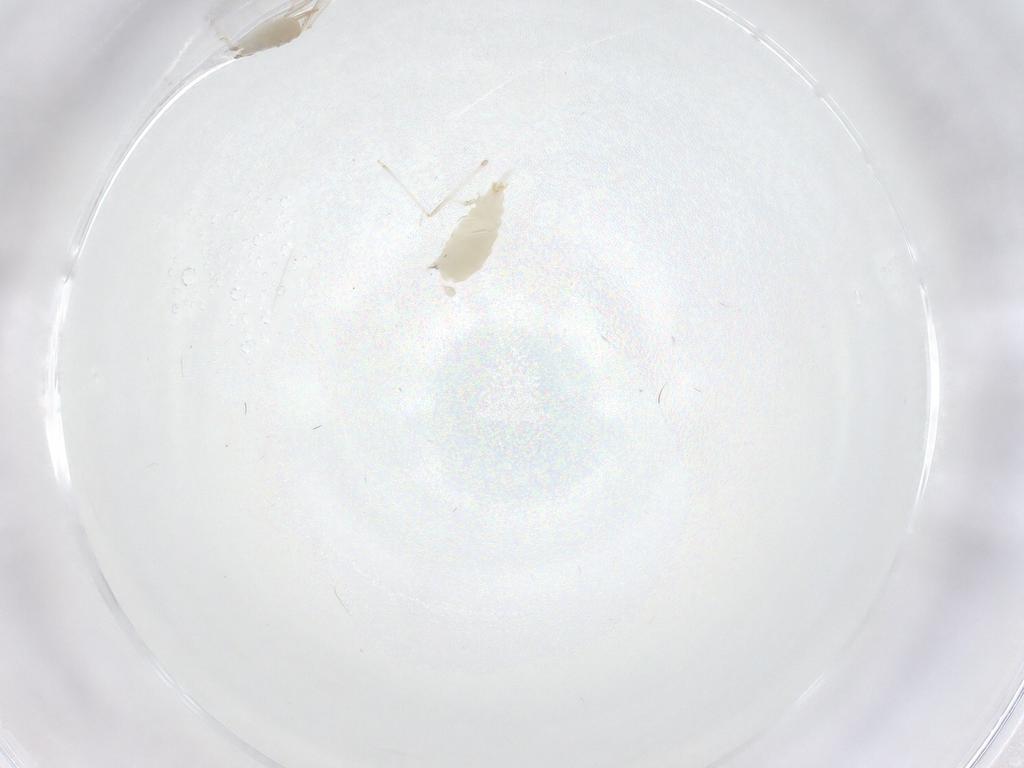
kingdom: Animalia
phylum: Arthropoda
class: Insecta
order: Diptera
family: Cecidomyiidae
